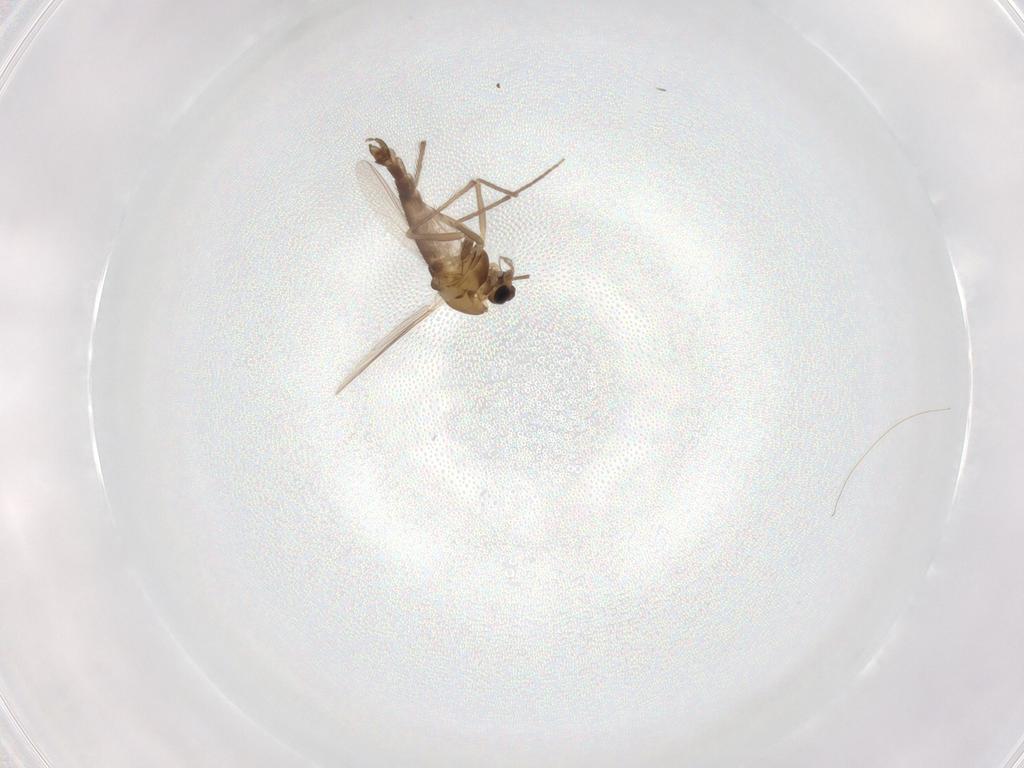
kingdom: Animalia
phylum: Arthropoda
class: Insecta
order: Diptera
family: Chironomidae
